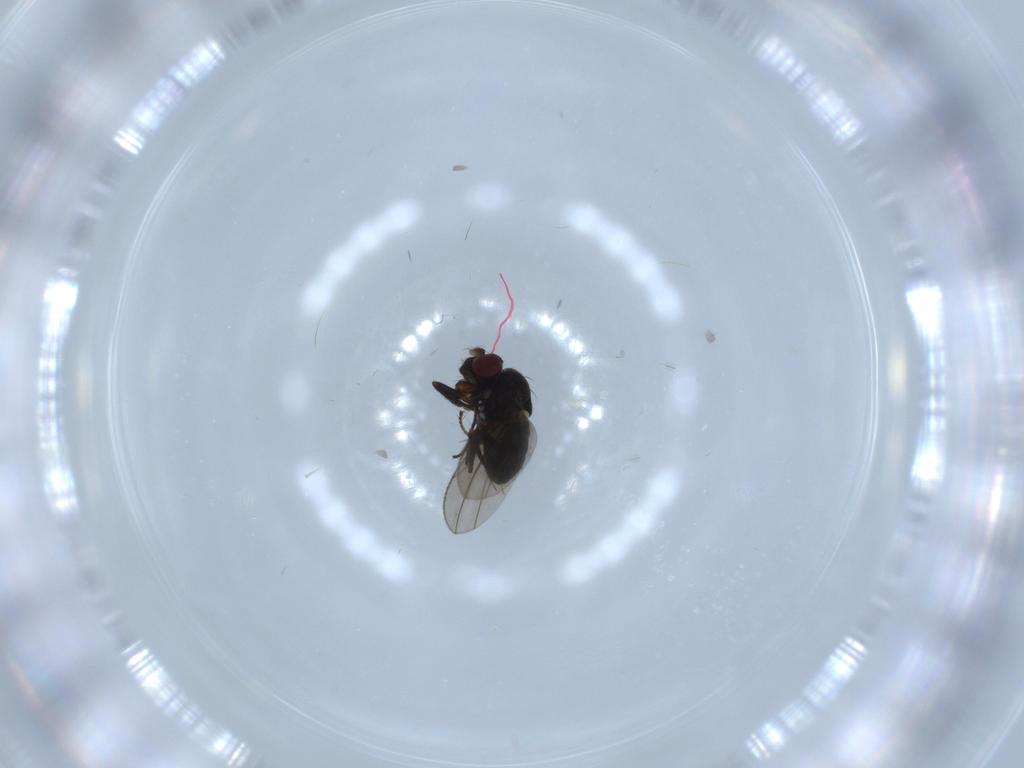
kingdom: Animalia
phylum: Arthropoda
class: Insecta
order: Diptera
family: Ephydridae
